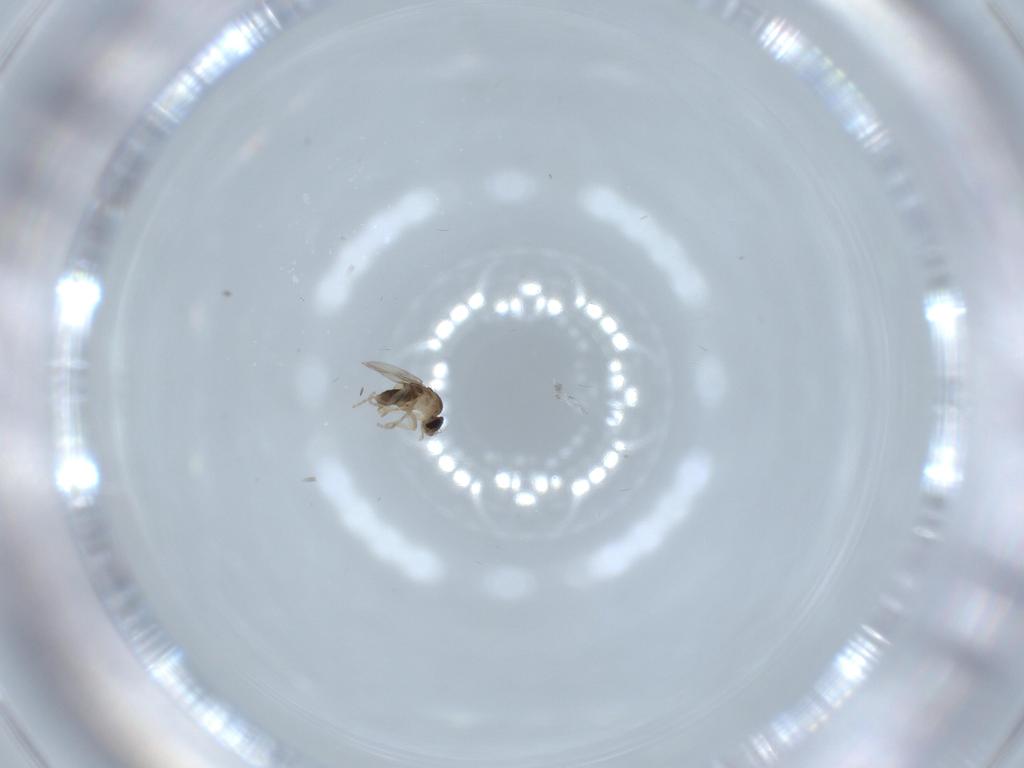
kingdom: Animalia
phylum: Arthropoda
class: Insecta
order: Diptera
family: Phoridae
